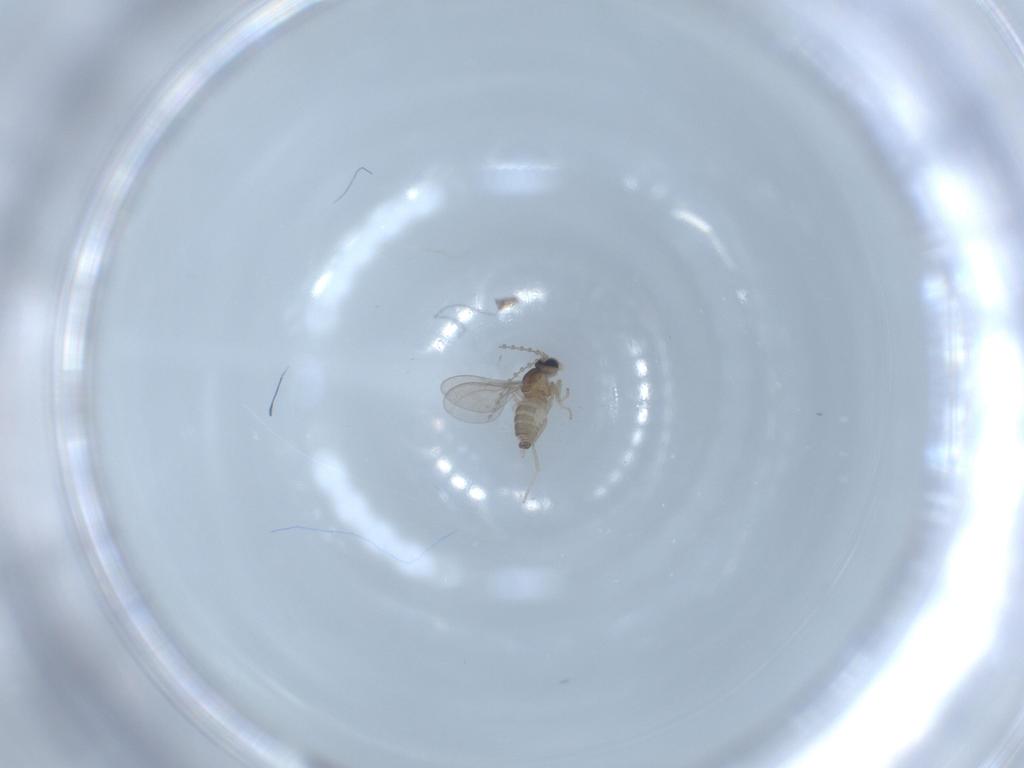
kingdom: Animalia
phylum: Arthropoda
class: Insecta
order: Diptera
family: Cecidomyiidae
